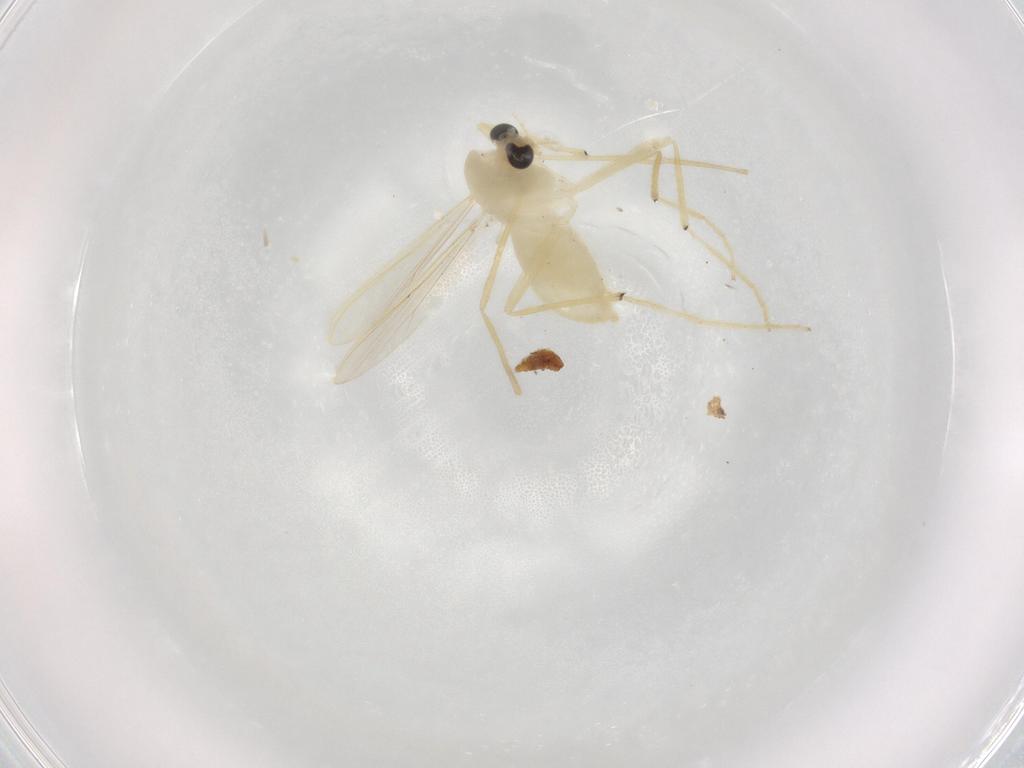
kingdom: Animalia
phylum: Arthropoda
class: Insecta
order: Diptera
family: Chironomidae
